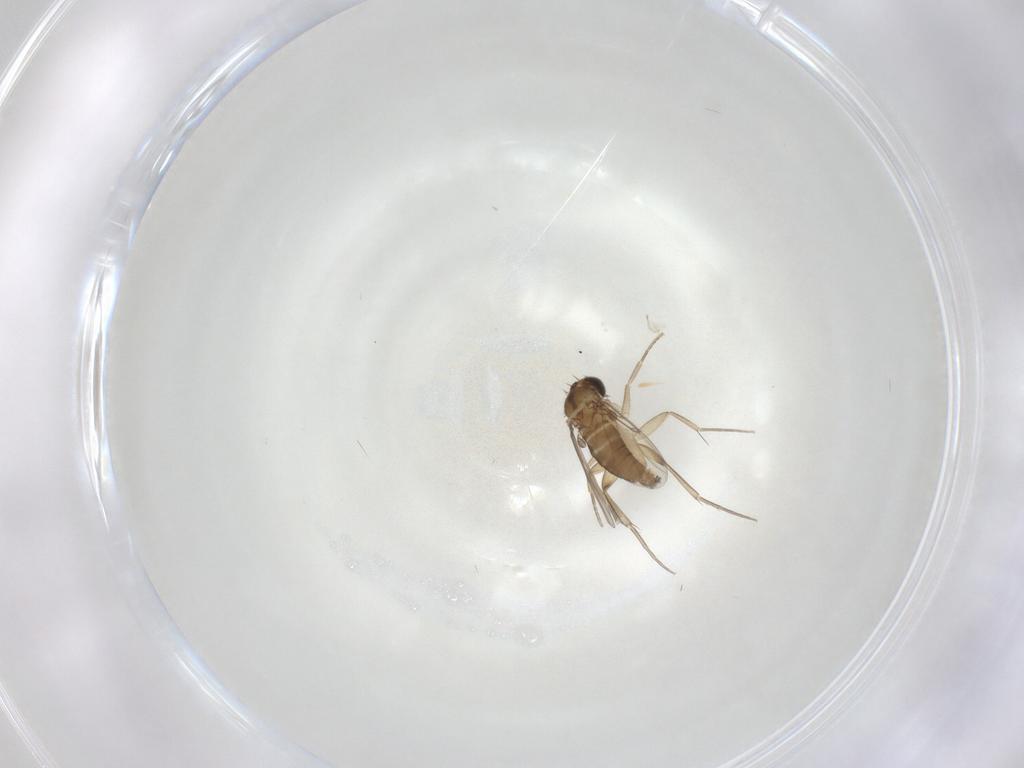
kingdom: Animalia
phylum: Arthropoda
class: Insecta
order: Diptera
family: Phoridae
